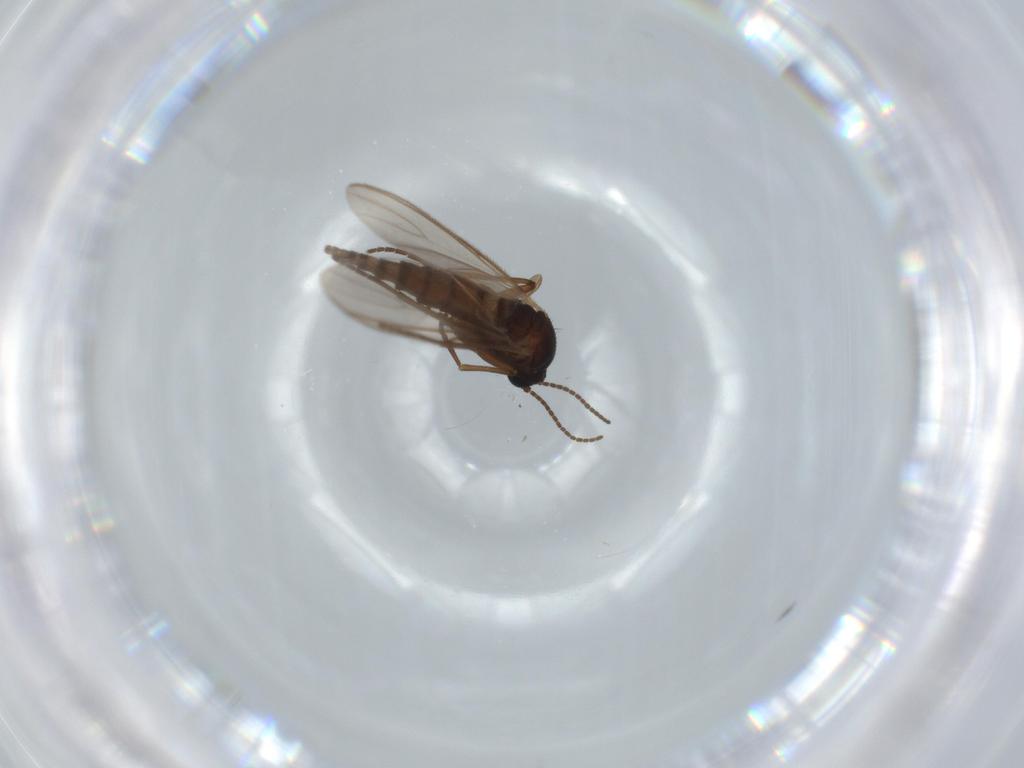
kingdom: Animalia
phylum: Arthropoda
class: Insecta
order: Diptera
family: Sciaridae
